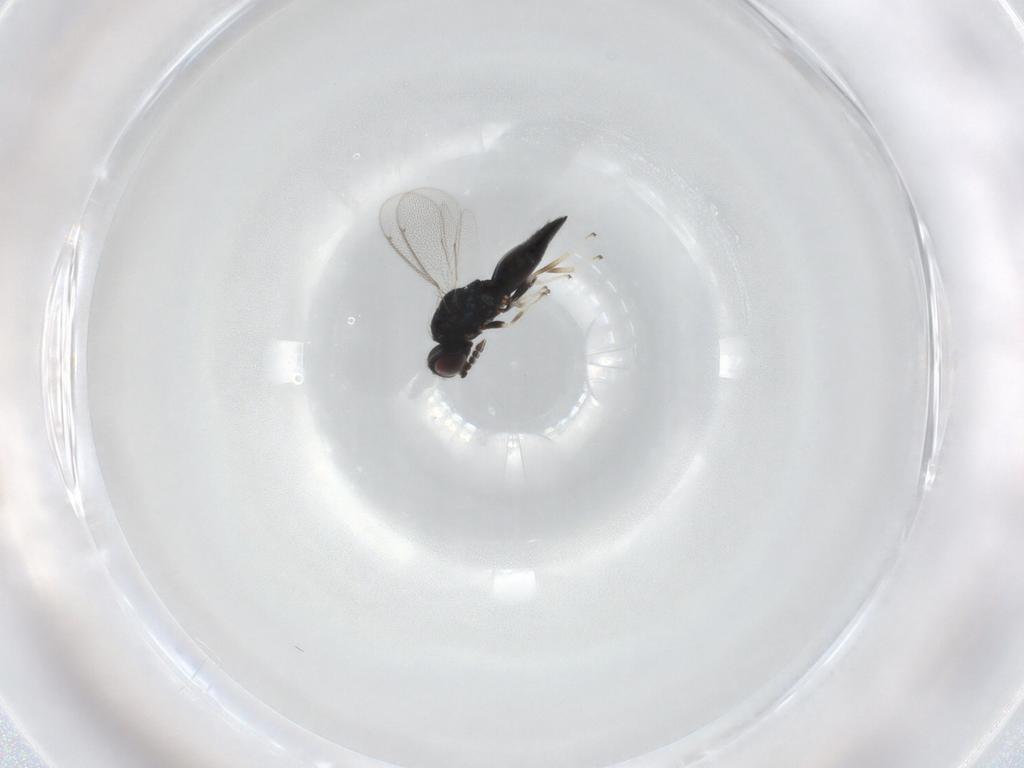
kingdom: Animalia
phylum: Arthropoda
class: Insecta
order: Hymenoptera
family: Eulophidae
